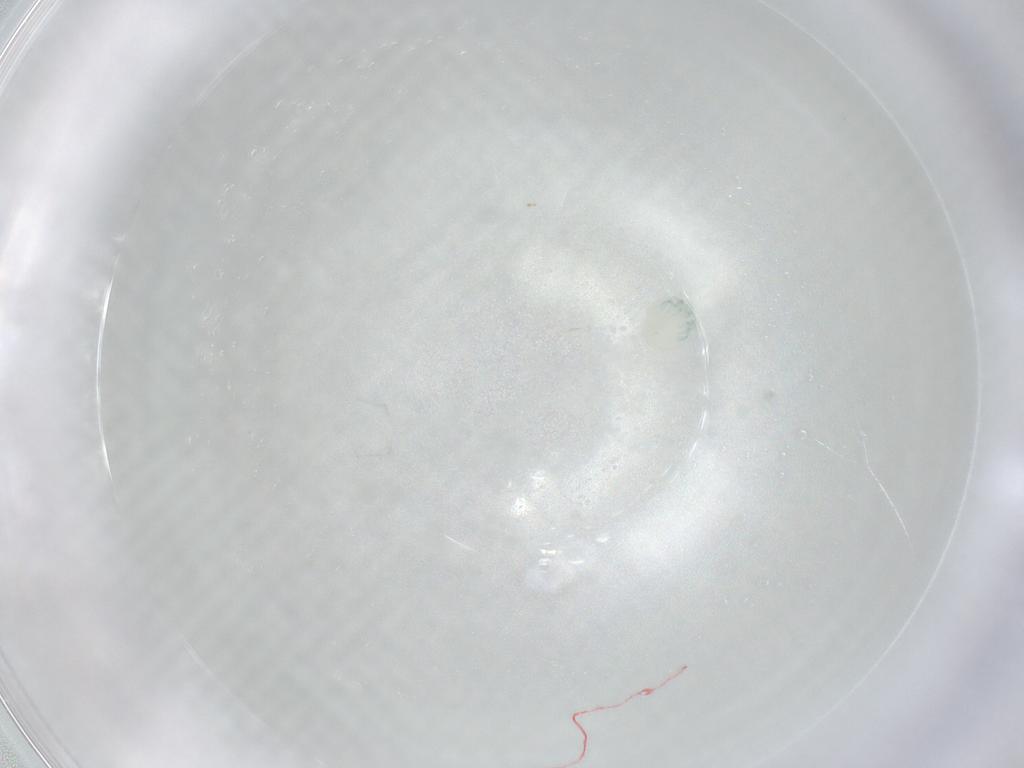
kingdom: Animalia
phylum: Arthropoda
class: Arachnida
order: Trombidiformes
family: Arrenuridae
